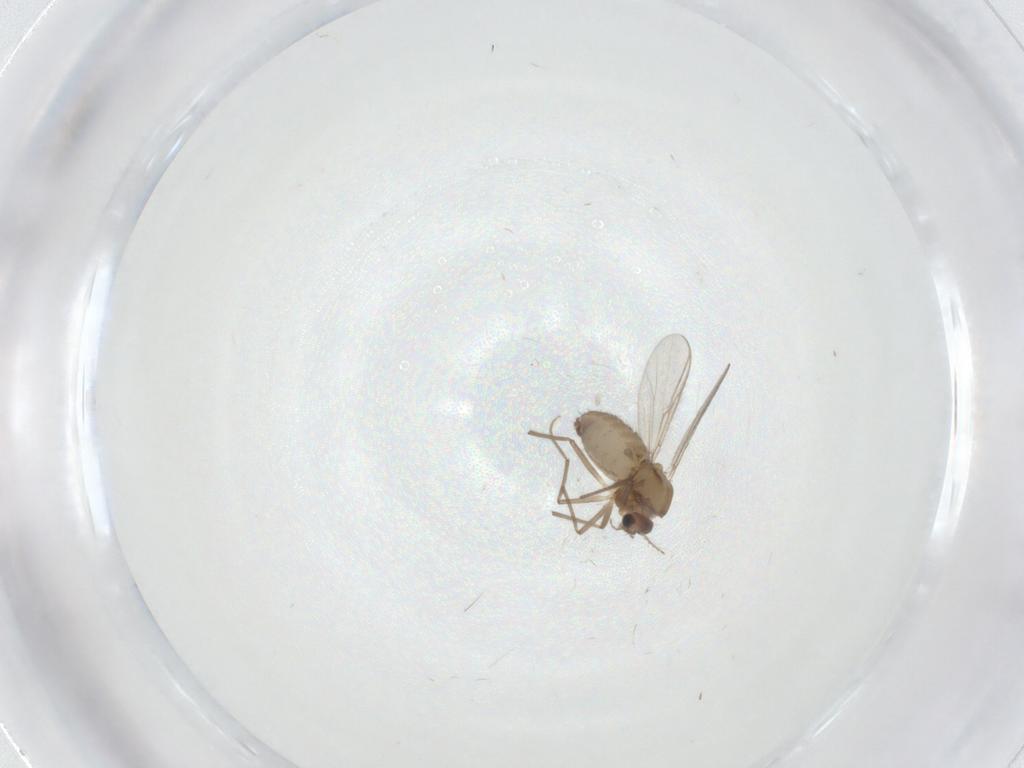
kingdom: Animalia
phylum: Arthropoda
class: Insecta
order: Diptera
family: Chironomidae
